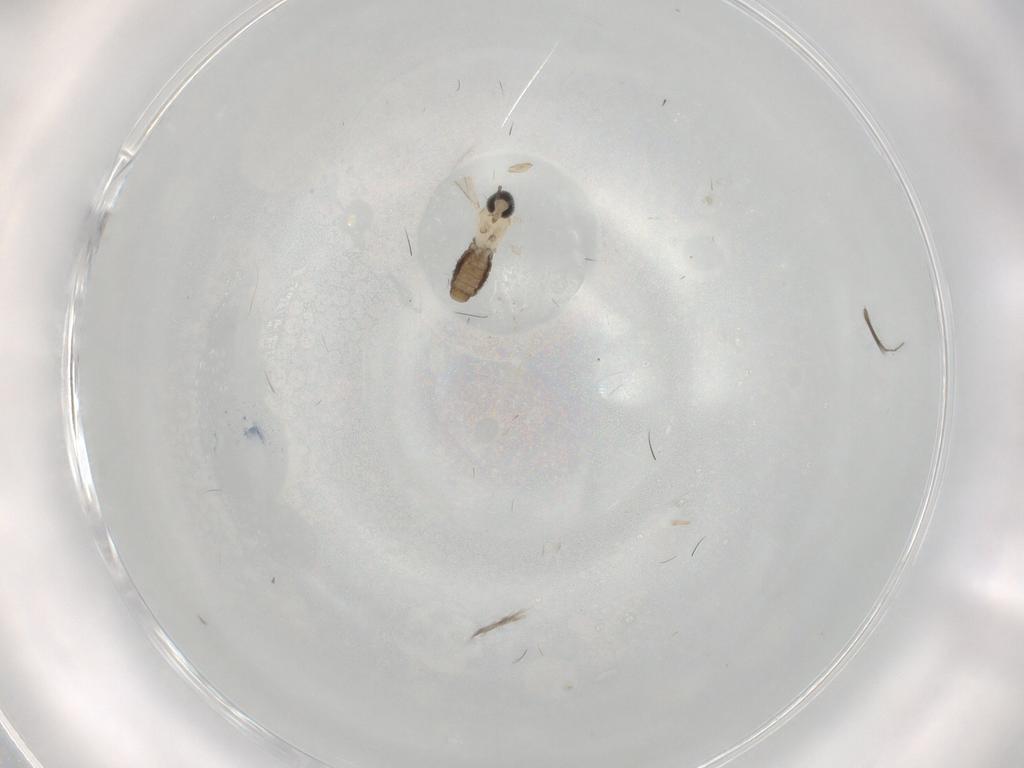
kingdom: Animalia
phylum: Arthropoda
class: Insecta
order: Diptera
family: Cecidomyiidae
